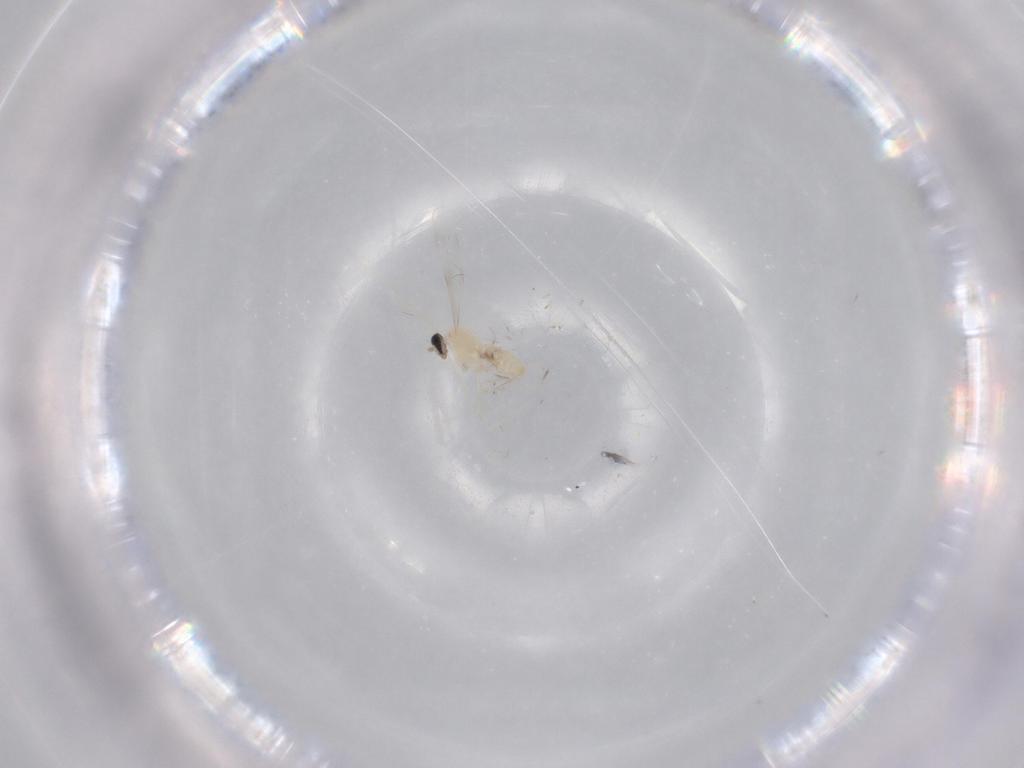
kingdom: Animalia
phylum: Arthropoda
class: Insecta
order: Diptera
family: Cecidomyiidae
